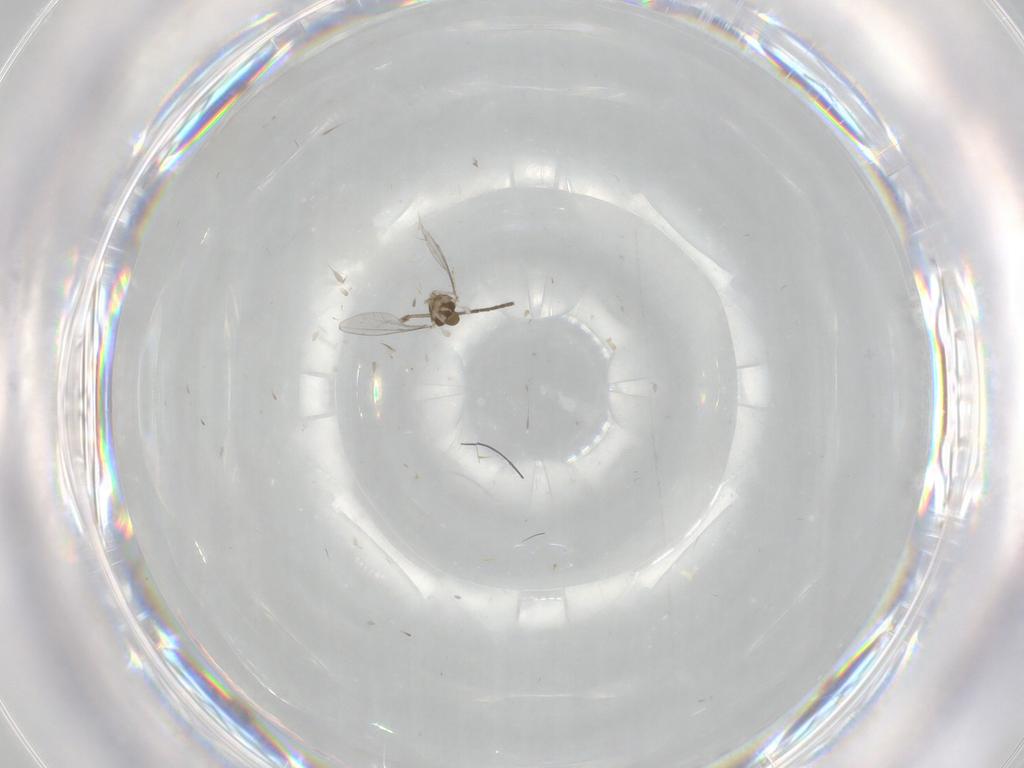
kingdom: Animalia
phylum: Arthropoda
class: Insecta
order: Diptera
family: Cecidomyiidae
